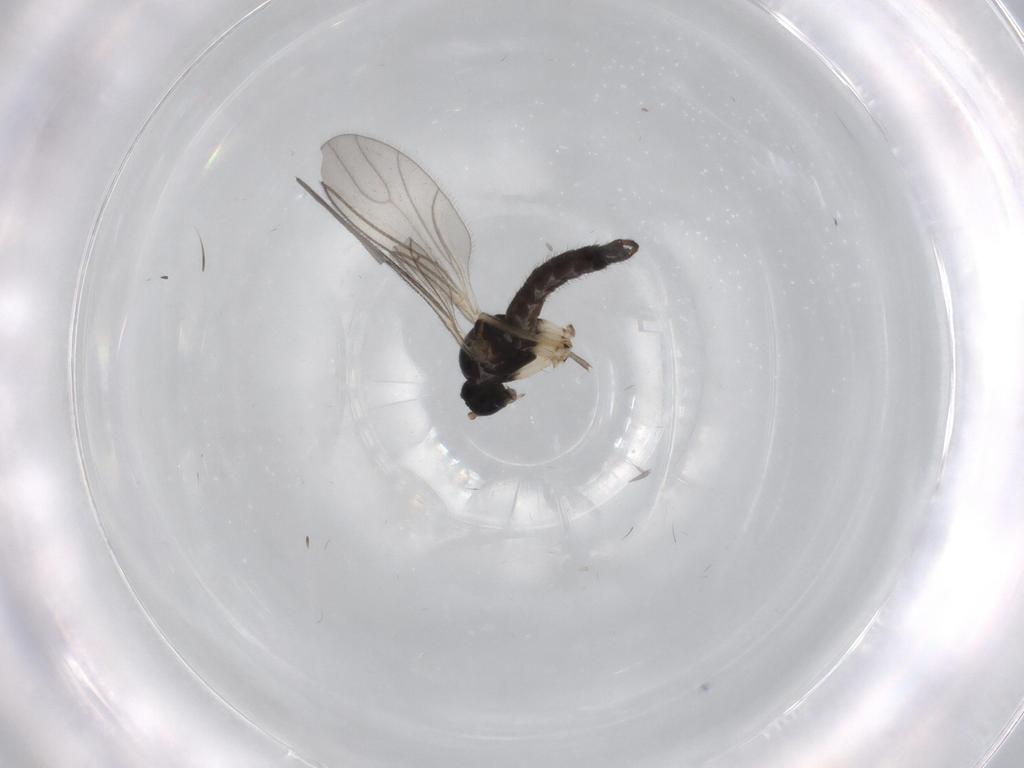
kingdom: Animalia
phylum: Arthropoda
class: Insecta
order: Diptera
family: Sciaridae
